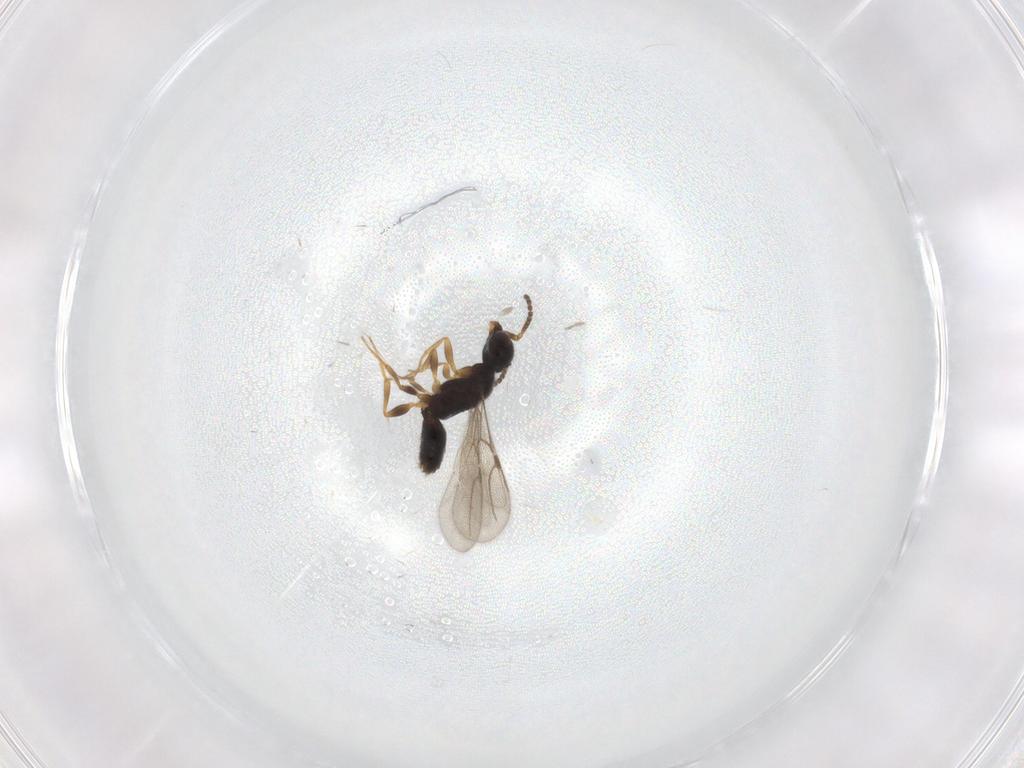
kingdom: Animalia
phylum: Arthropoda
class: Insecta
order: Hymenoptera
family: Bethylidae
